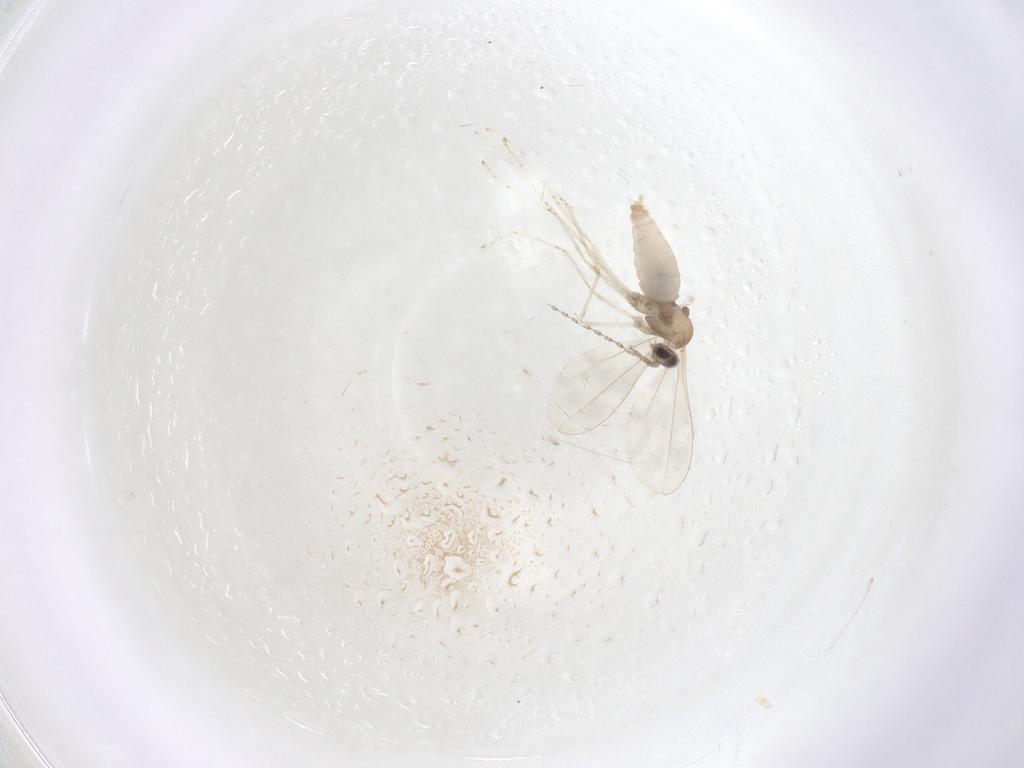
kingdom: Animalia
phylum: Arthropoda
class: Insecta
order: Diptera
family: Cecidomyiidae
